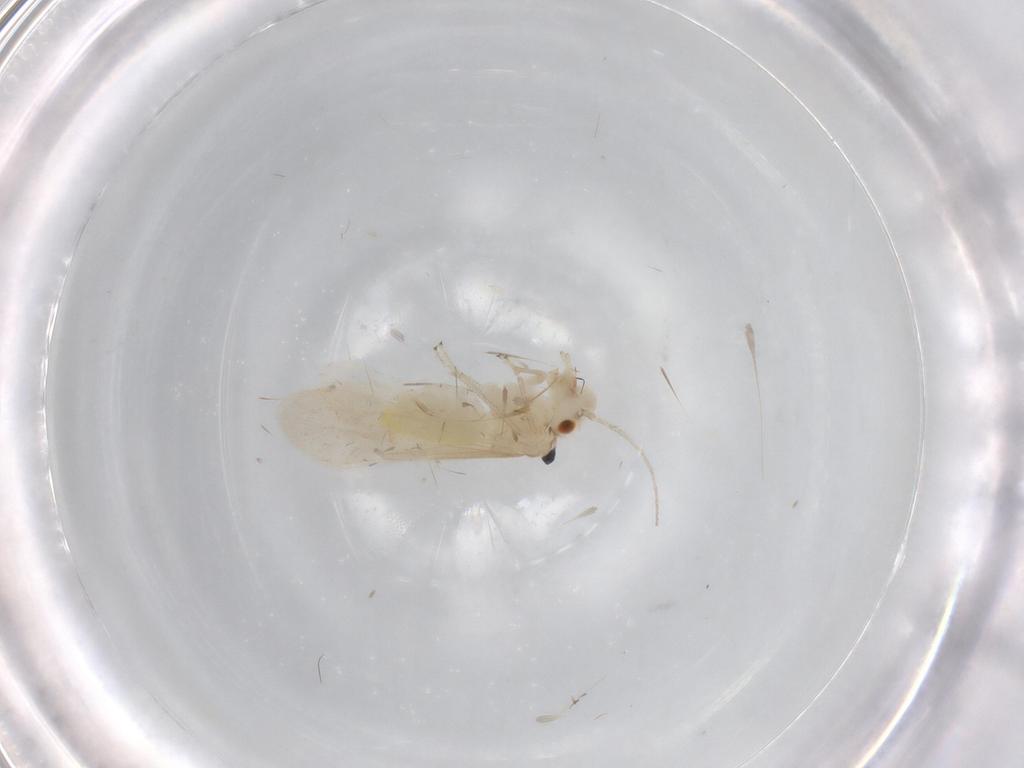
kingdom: Animalia
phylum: Arthropoda
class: Insecta
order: Psocodea
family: Caeciliusidae
